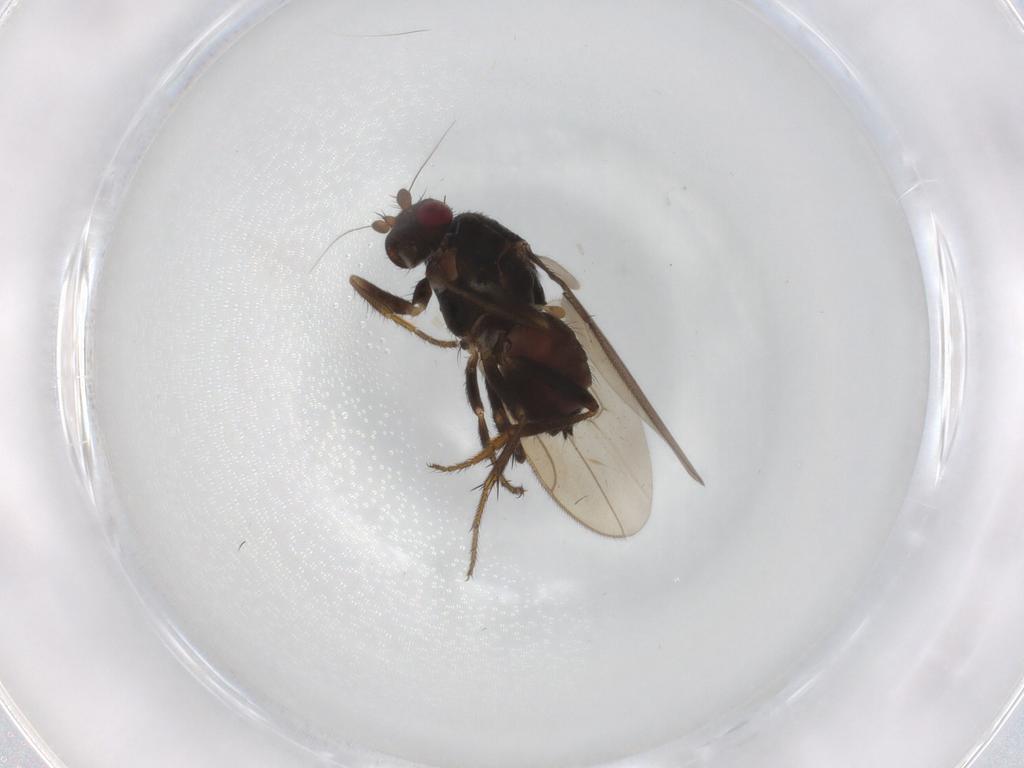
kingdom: Animalia
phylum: Arthropoda
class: Insecta
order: Diptera
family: Sphaeroceridae
